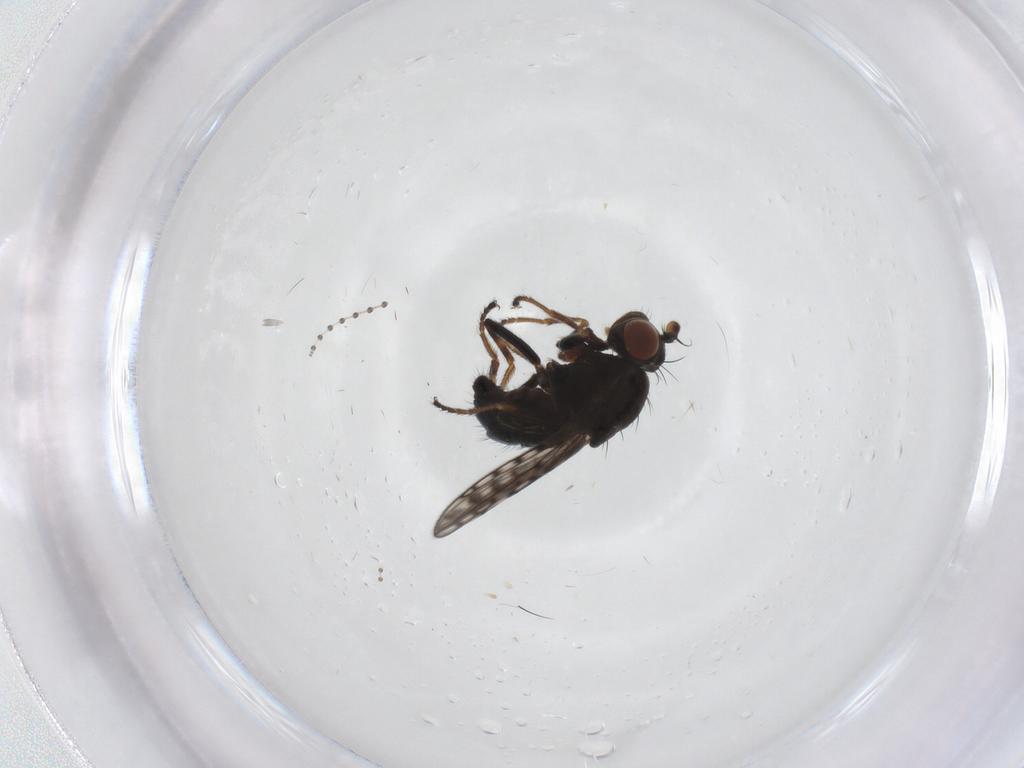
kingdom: Animalia
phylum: Arthropoda
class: Insecta
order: Diptera
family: Ephydridae
